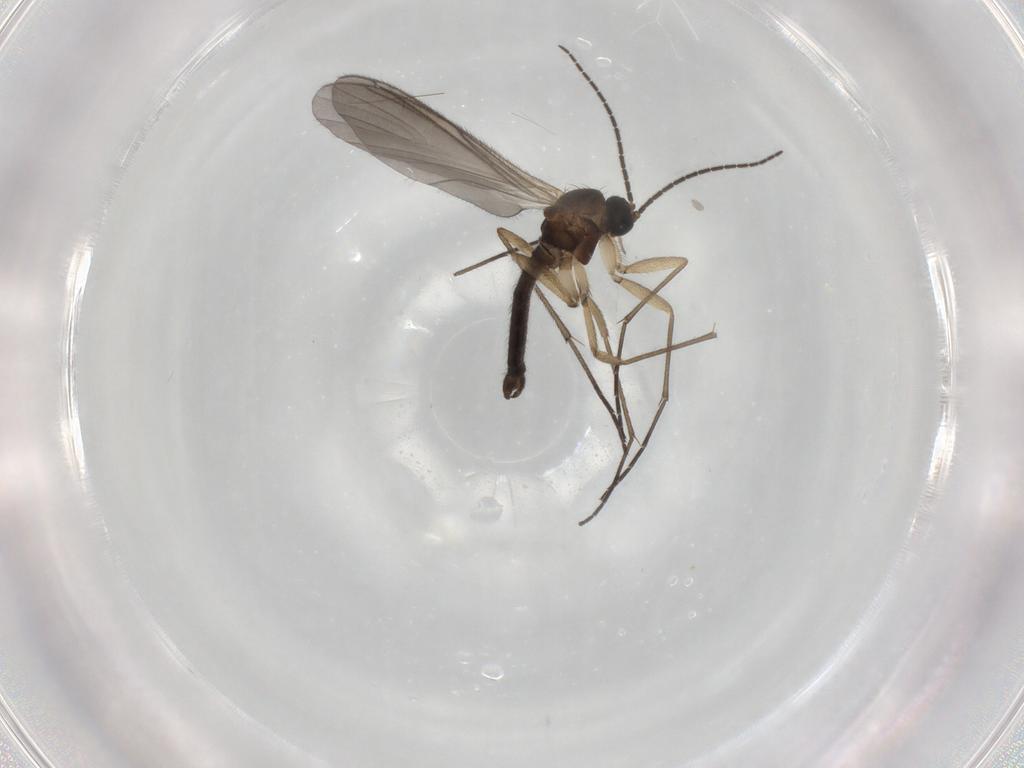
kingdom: Animalia
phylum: Arthropoda
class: Insecta
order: Diptera
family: Sciaridae
